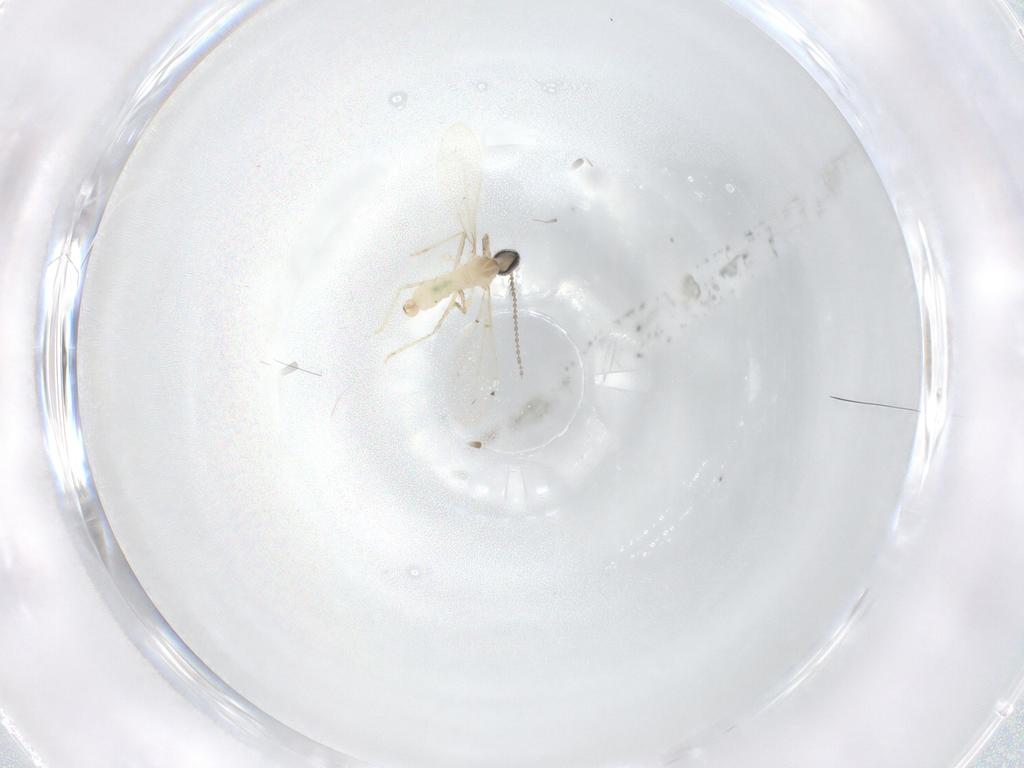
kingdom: Animalia
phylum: Arthropoda
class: Insecta
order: Diptera
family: Cecidomyiidae
